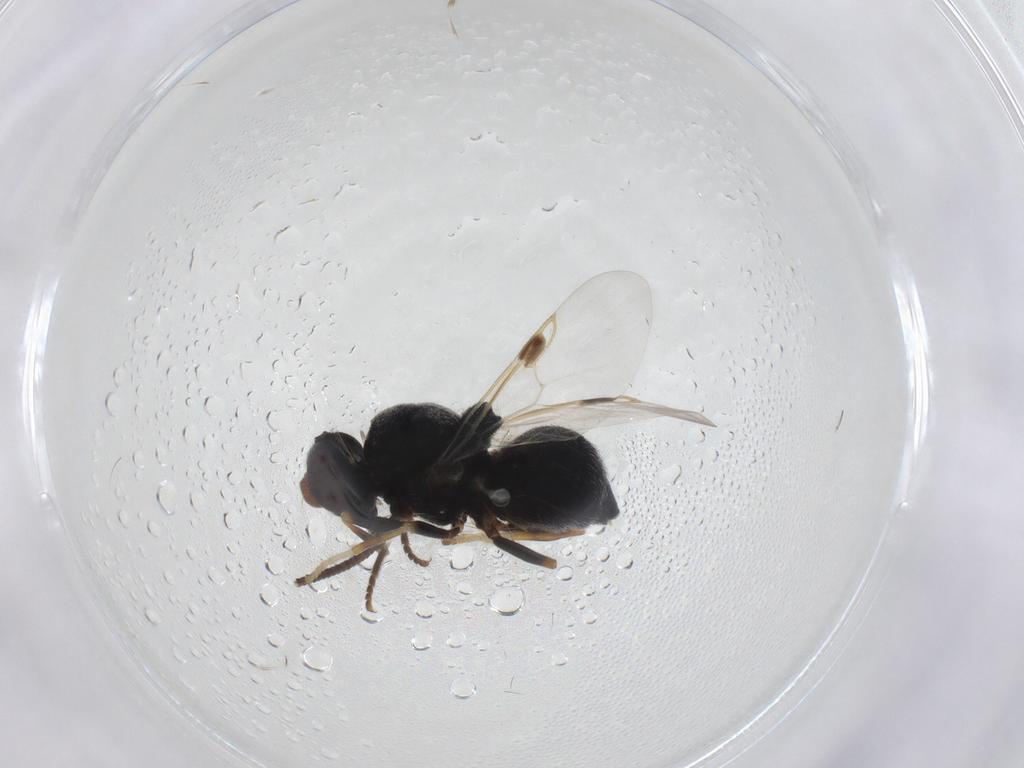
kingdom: Animalia
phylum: Arthropoda
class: Insecta
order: Diptera
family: Stratiomyidae
